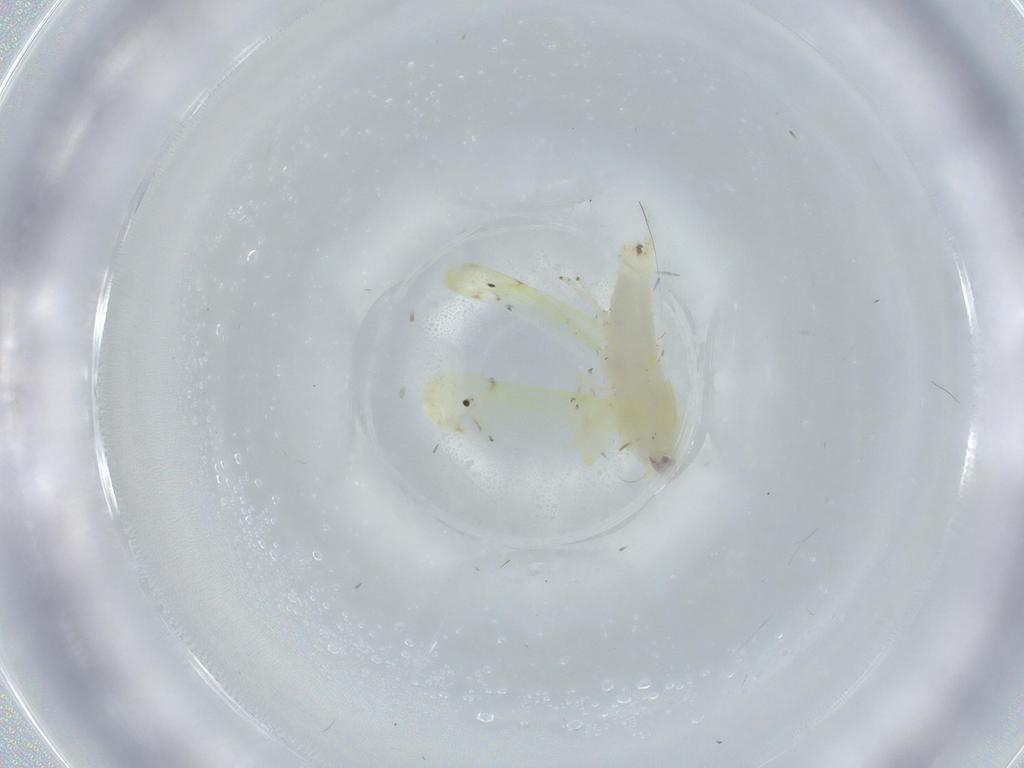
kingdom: Animalia
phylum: Arthropoda
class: Insecta
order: Hemiptera
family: Cicadellidae
